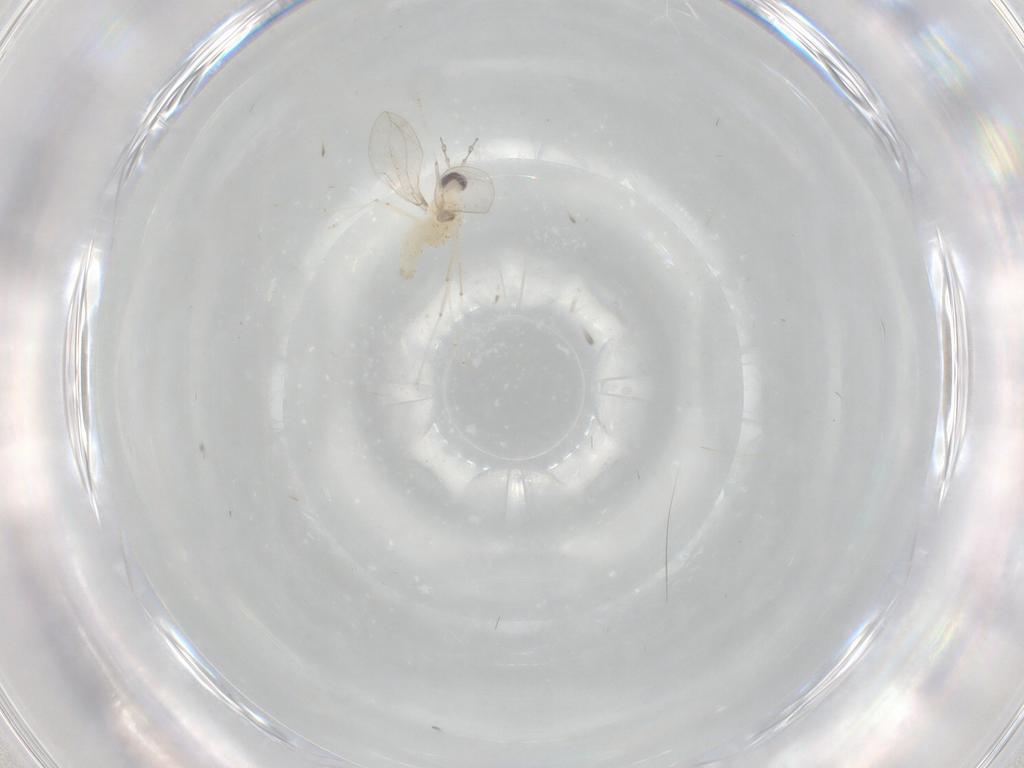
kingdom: Animalia
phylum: Arthropoda
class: Insecta
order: Diptera
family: Cecidomyiidae
